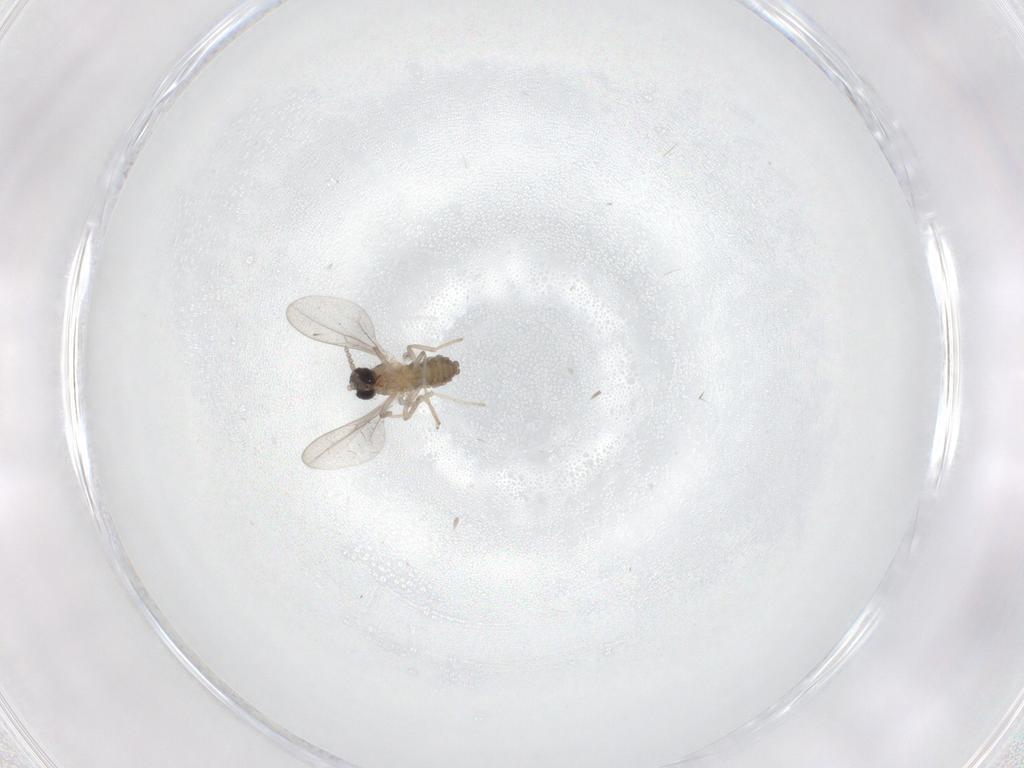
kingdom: Animalia
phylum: Arthropoda
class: Insecta
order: Diptera
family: Cecidomyiidae
